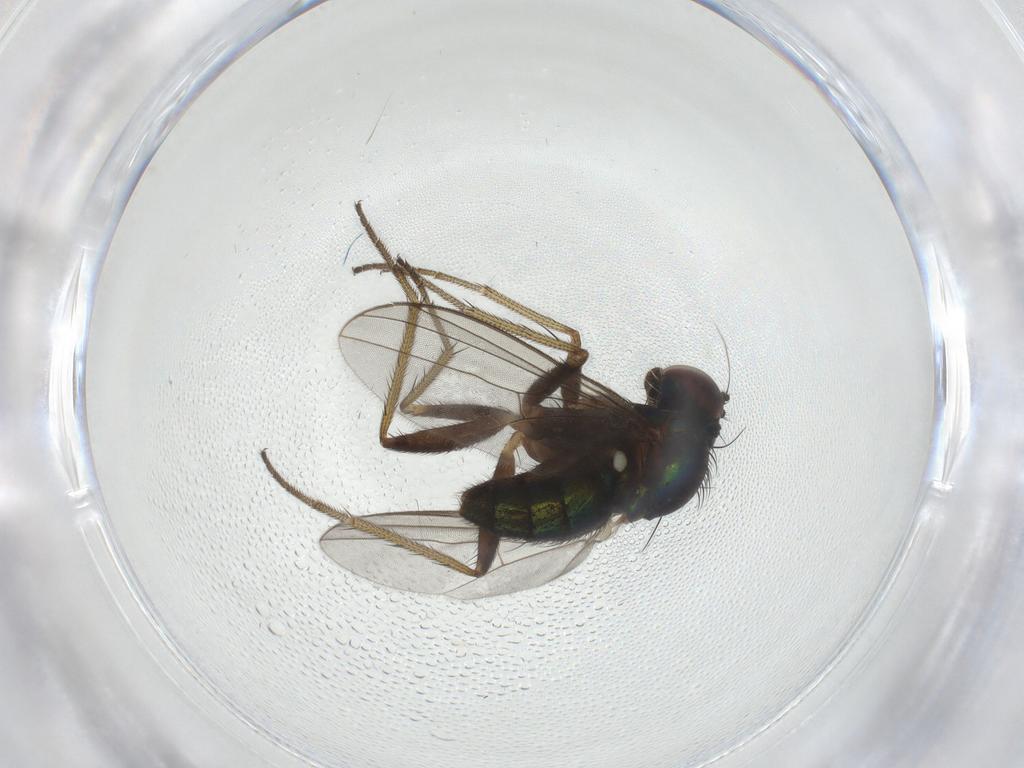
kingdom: Animalia
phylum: Arthropoda
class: Insecta
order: Diptera
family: Dolichopodidae
